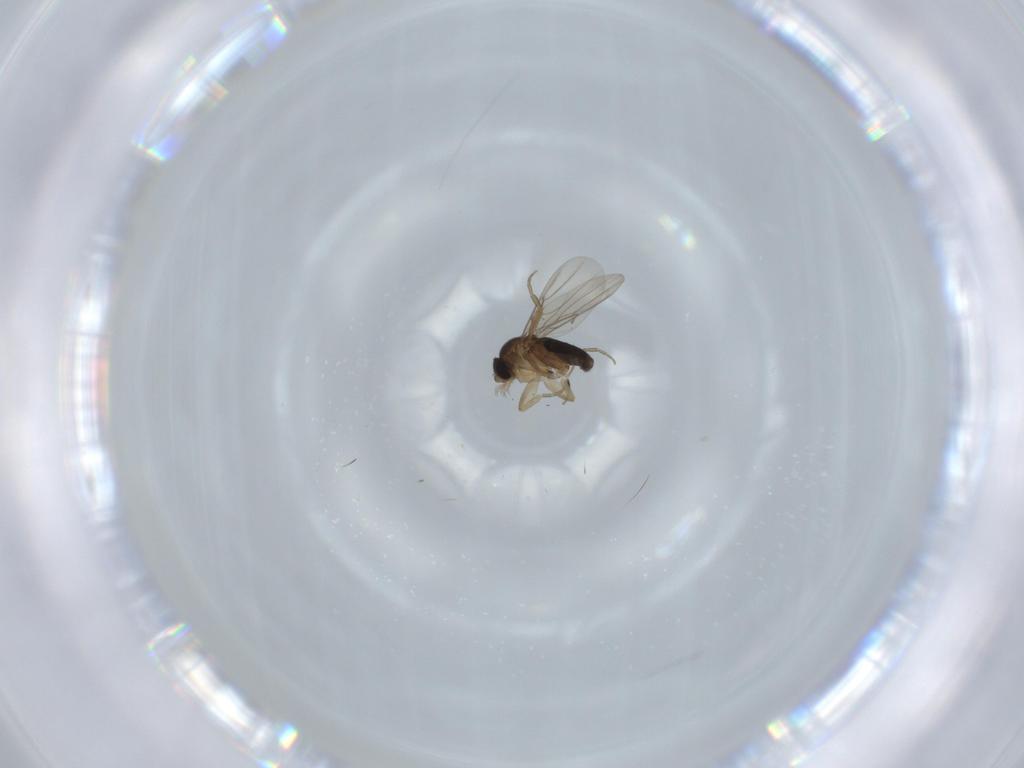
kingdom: Animalia
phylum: Arthropoda
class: Insecta
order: Diptera
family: Phoridae
